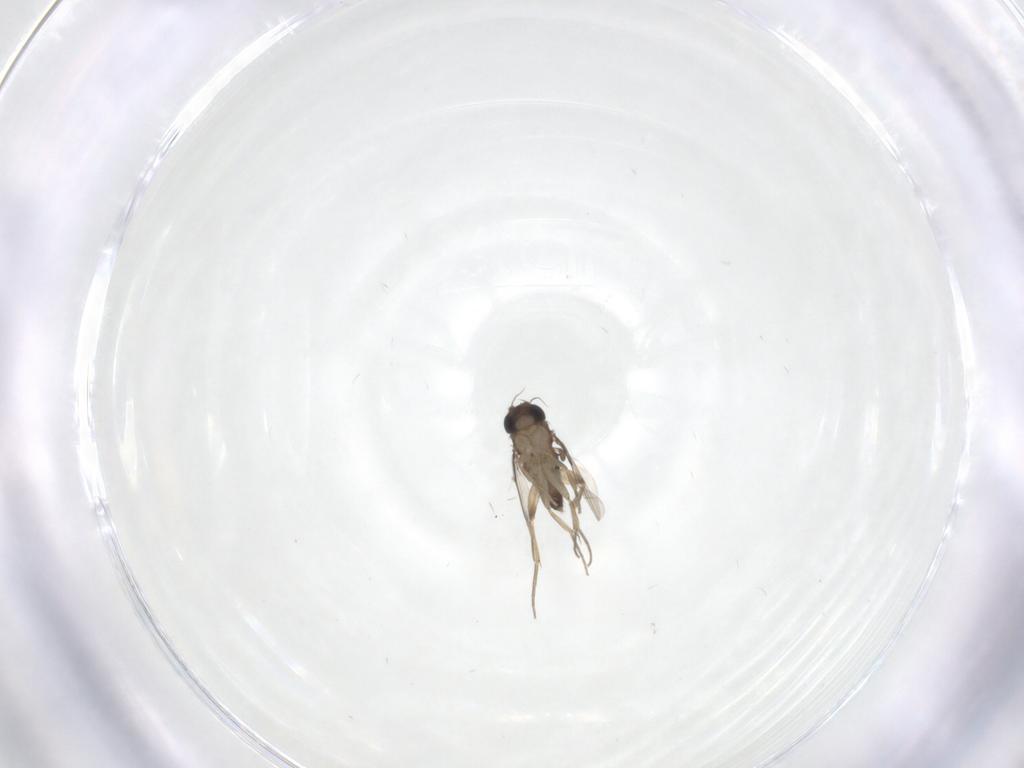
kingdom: Animalia
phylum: Arthropoda
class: Insecta
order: Diptera
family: Phoridae
